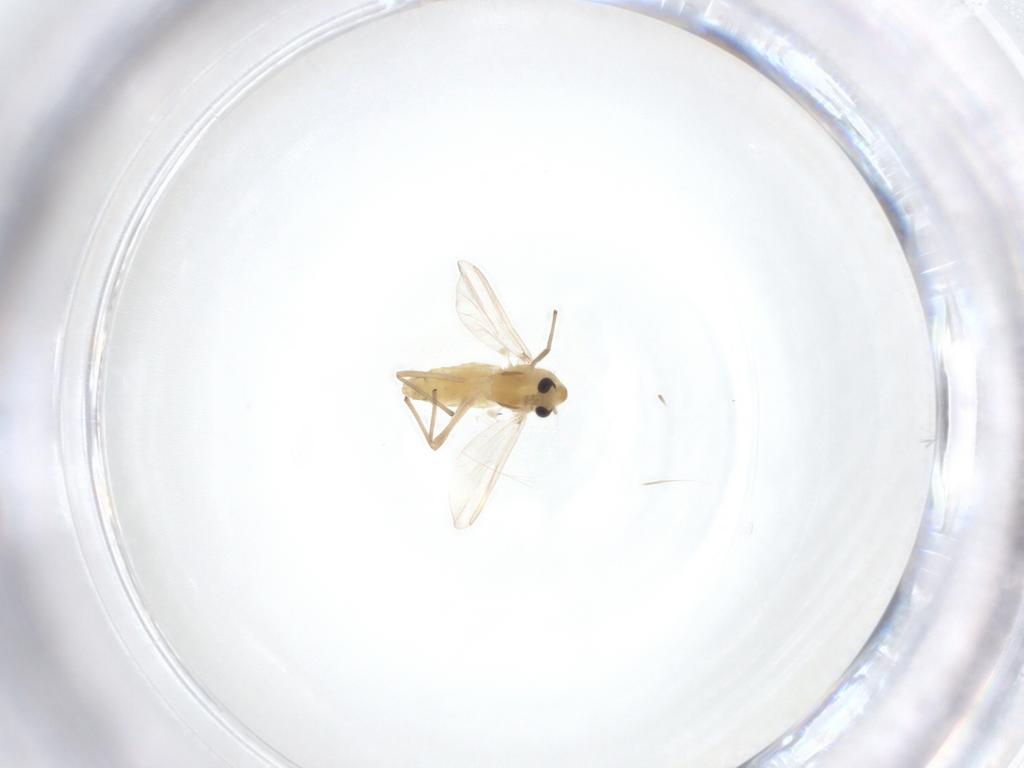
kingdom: Animalia
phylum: Arthropoda
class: Insecta
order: Diptera
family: Chironomidae
